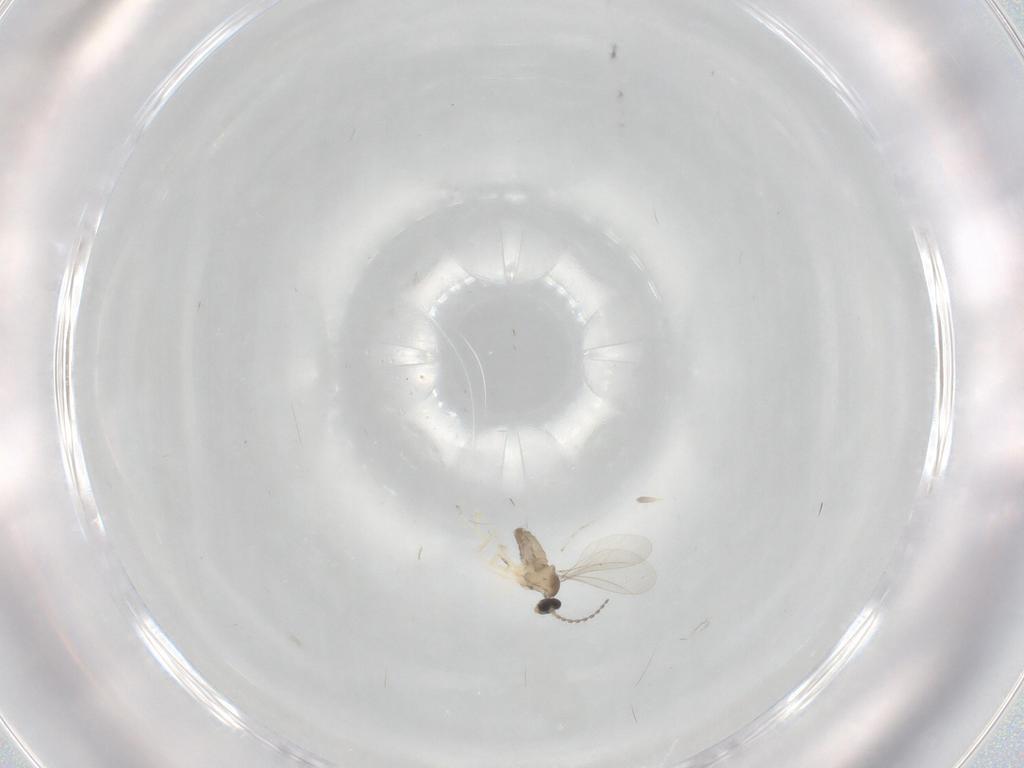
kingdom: Animalia
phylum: Arthropoda
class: Insecta
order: Diptera
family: Cecidomyiidae
